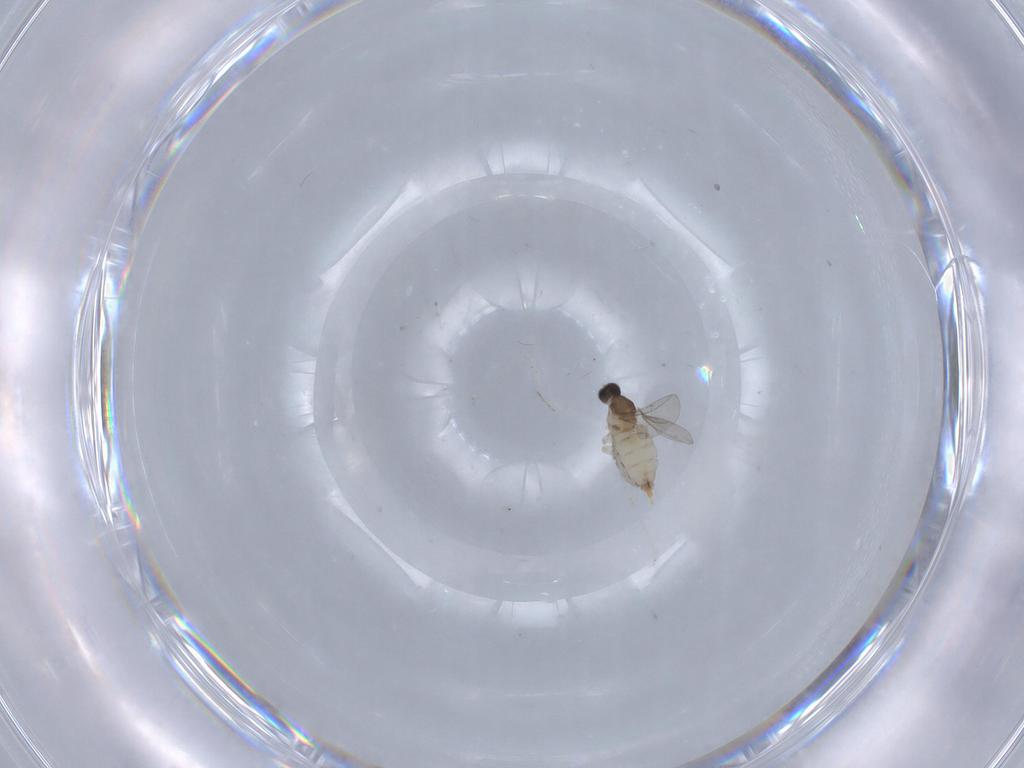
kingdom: Animalia
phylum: Arthropoda
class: Insecta
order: Diptera
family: Cecidomyiidae
